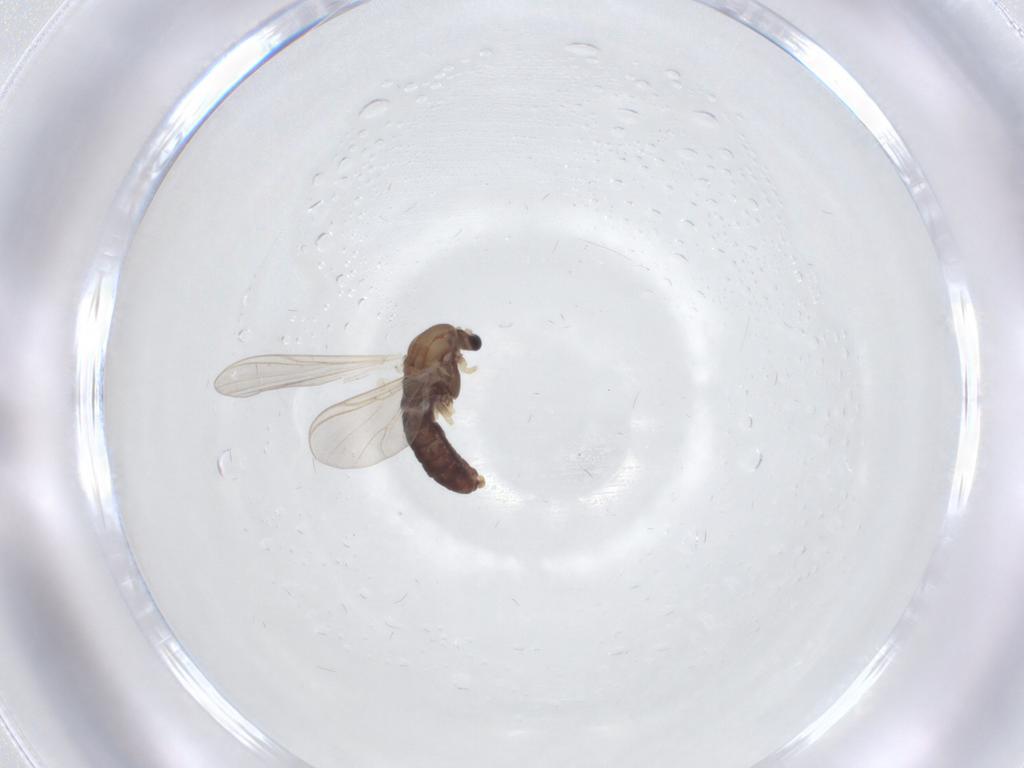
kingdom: Animalia
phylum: Arthropoda
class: Insecta
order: Diptera
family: Chironomidae
